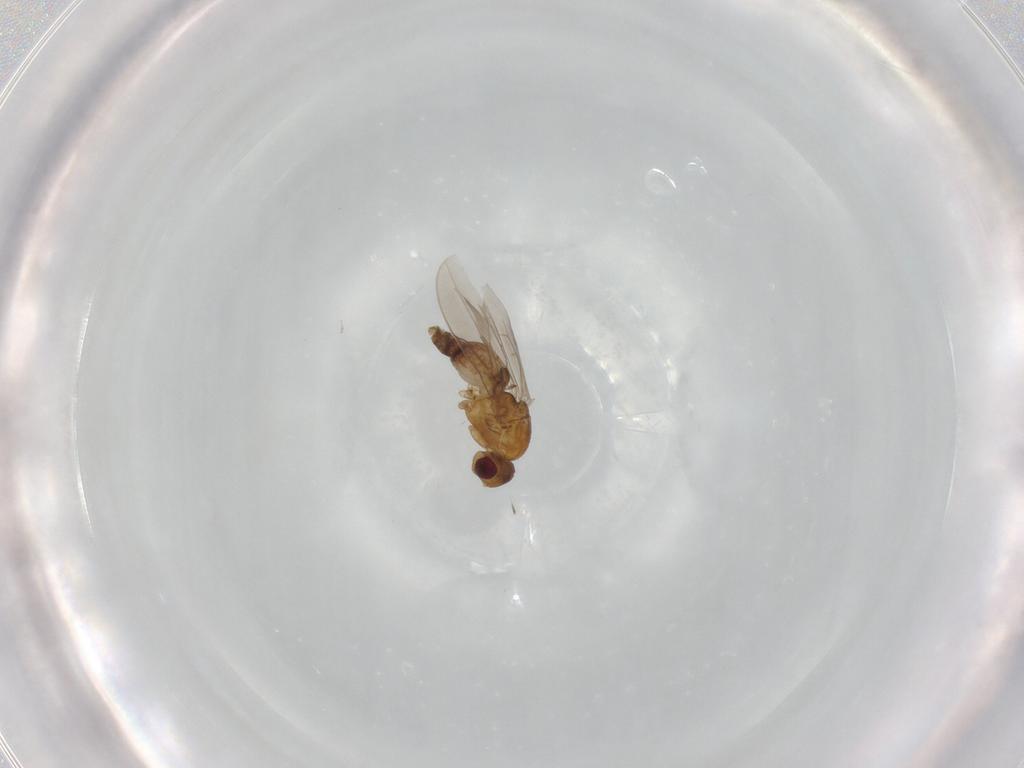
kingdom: Animalia
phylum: Arthropoda
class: Insecta
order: Diptera
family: Sphaeroceridae
